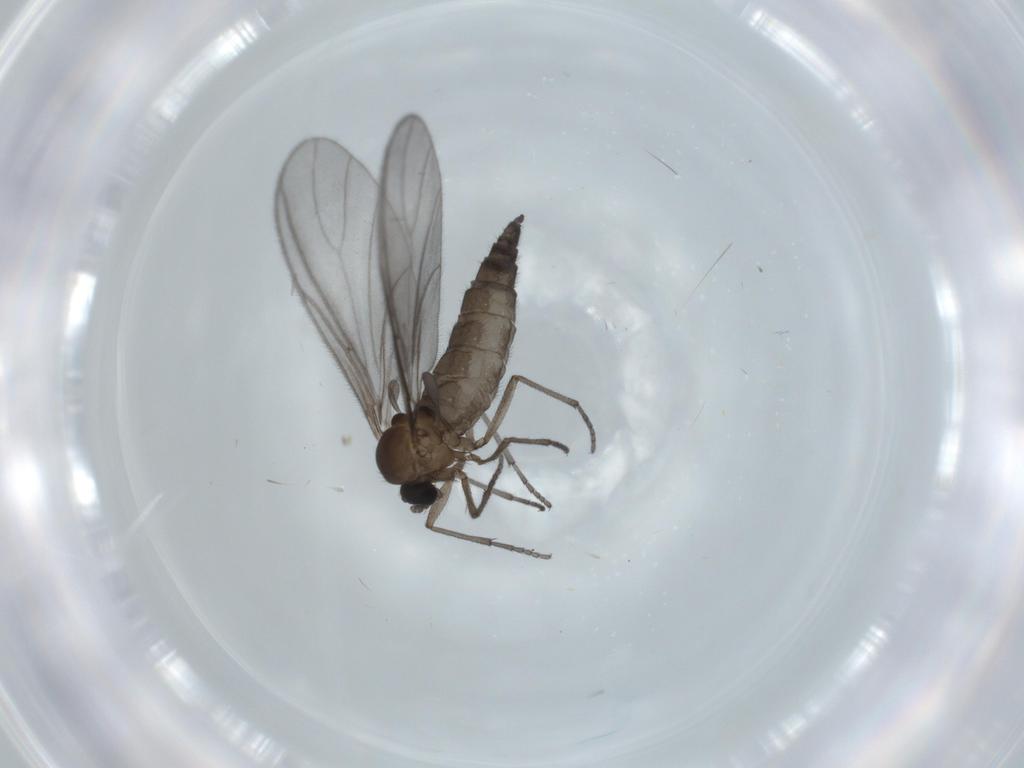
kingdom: Animalia
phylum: Arthropoda
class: Insecta
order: Diptera
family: Sciaridae
